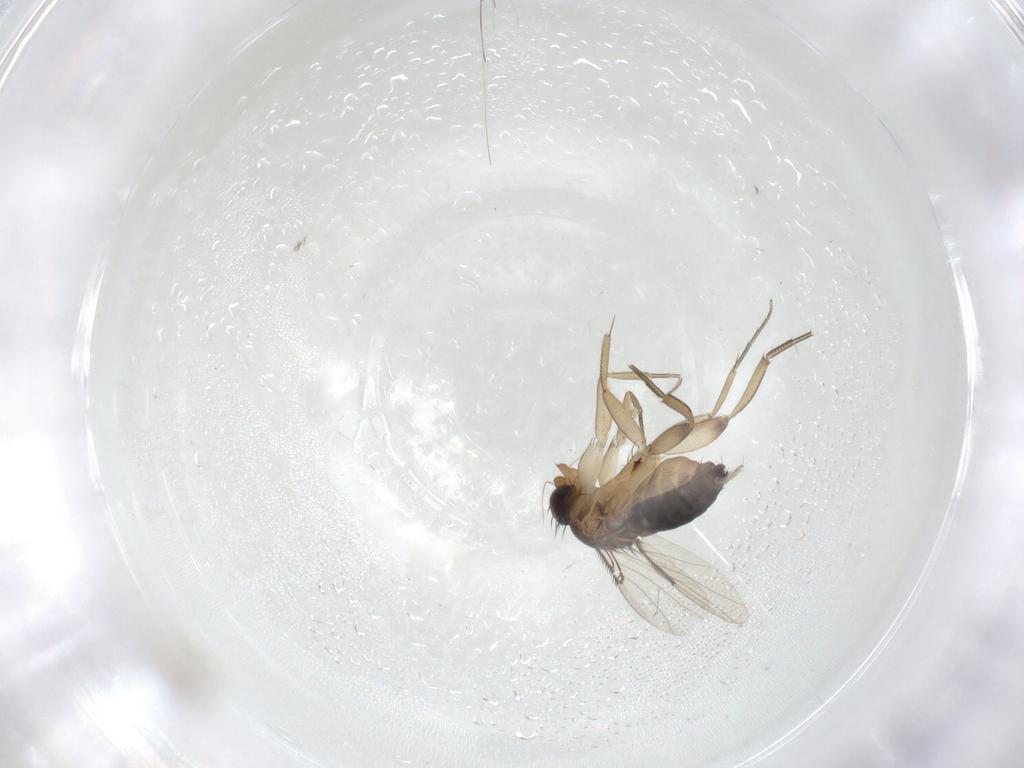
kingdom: Animalia
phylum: Arthropoda
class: Insecta
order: Diptera
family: Phoridae
